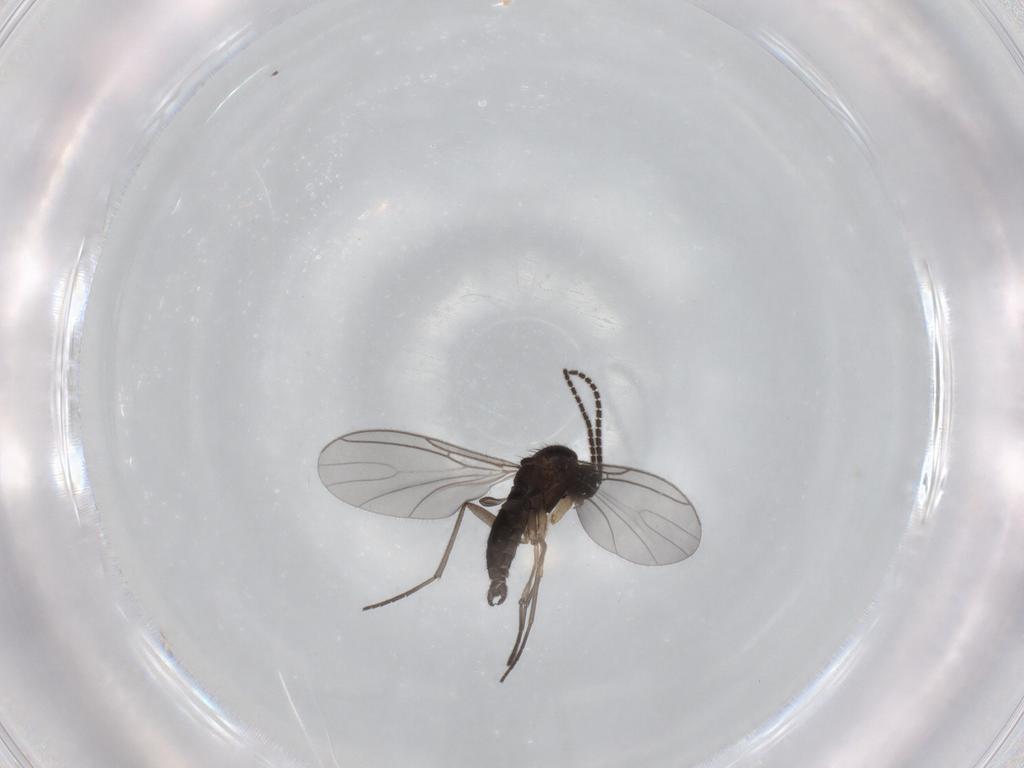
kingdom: Animalia
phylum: Arthropoda
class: Insecta
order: Diptera
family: Sciaridae
